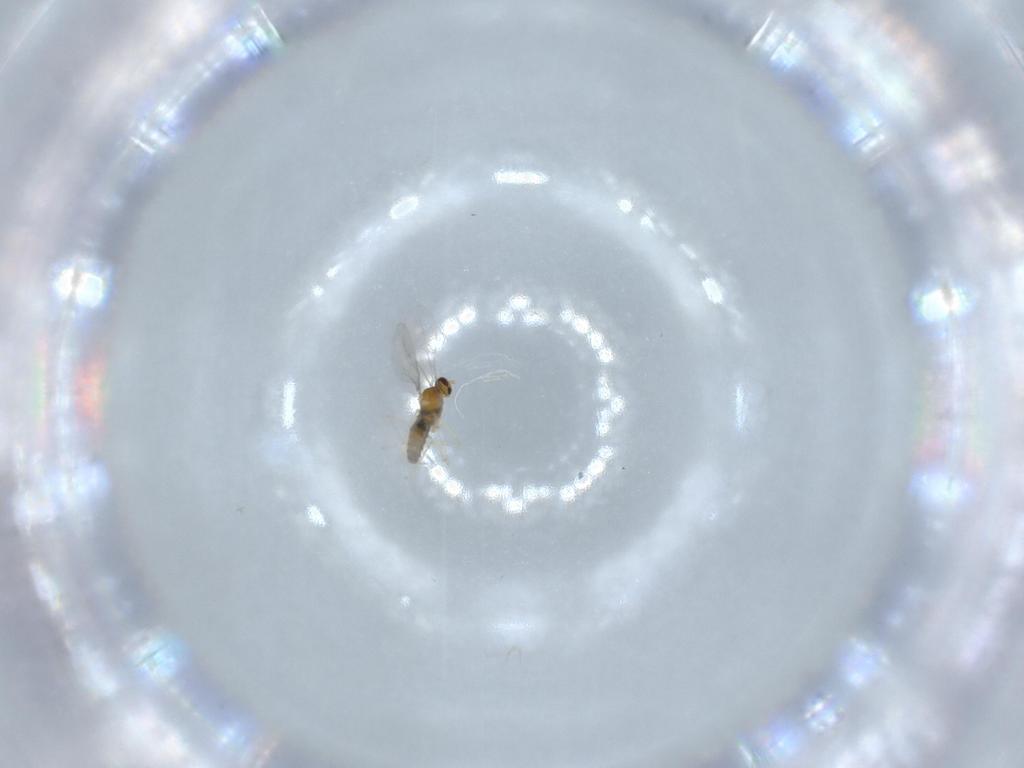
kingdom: Animalia
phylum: Arthropoda
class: Insecta
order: Diptera
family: Cecidomyiidae
